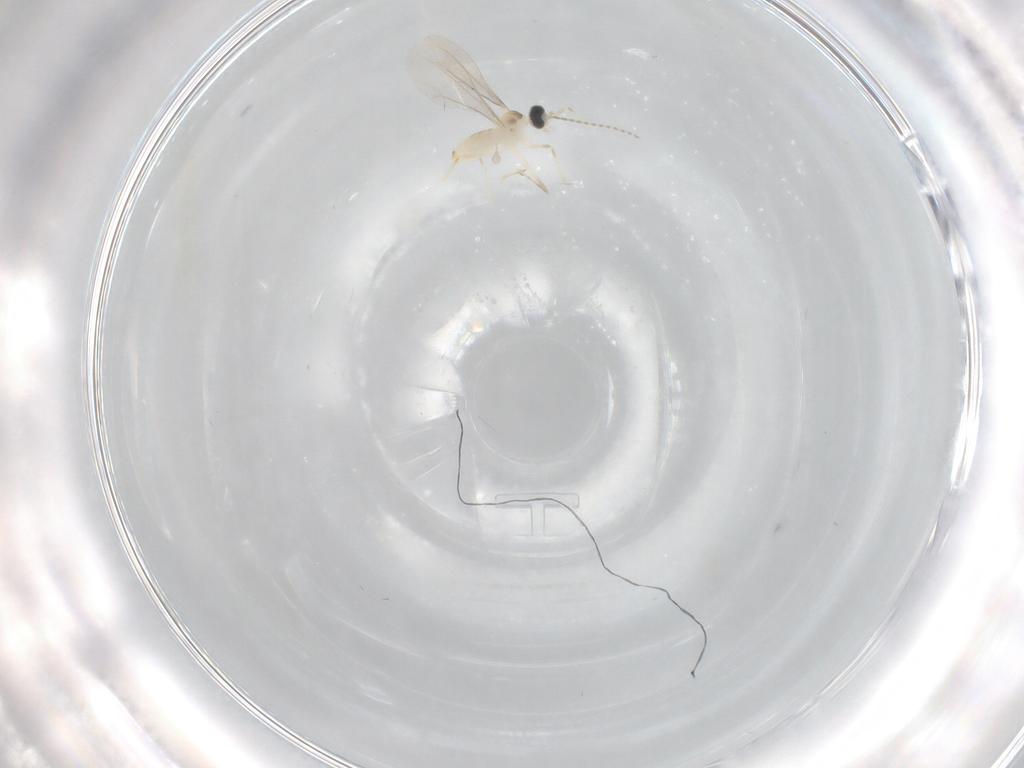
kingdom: Animalia
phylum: Arthropoda
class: Insecta
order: Diptera
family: Cecidomyiidae
